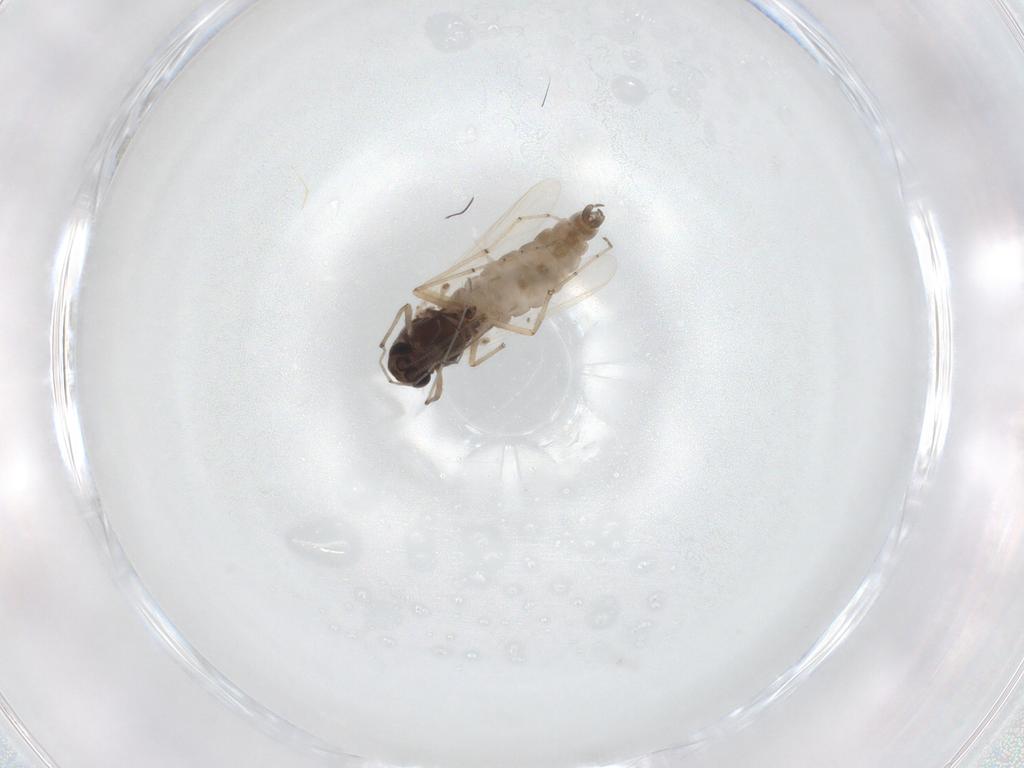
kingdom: Animalia
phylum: Arthropoda
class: Insecta
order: Diptera
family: Chironomidae
